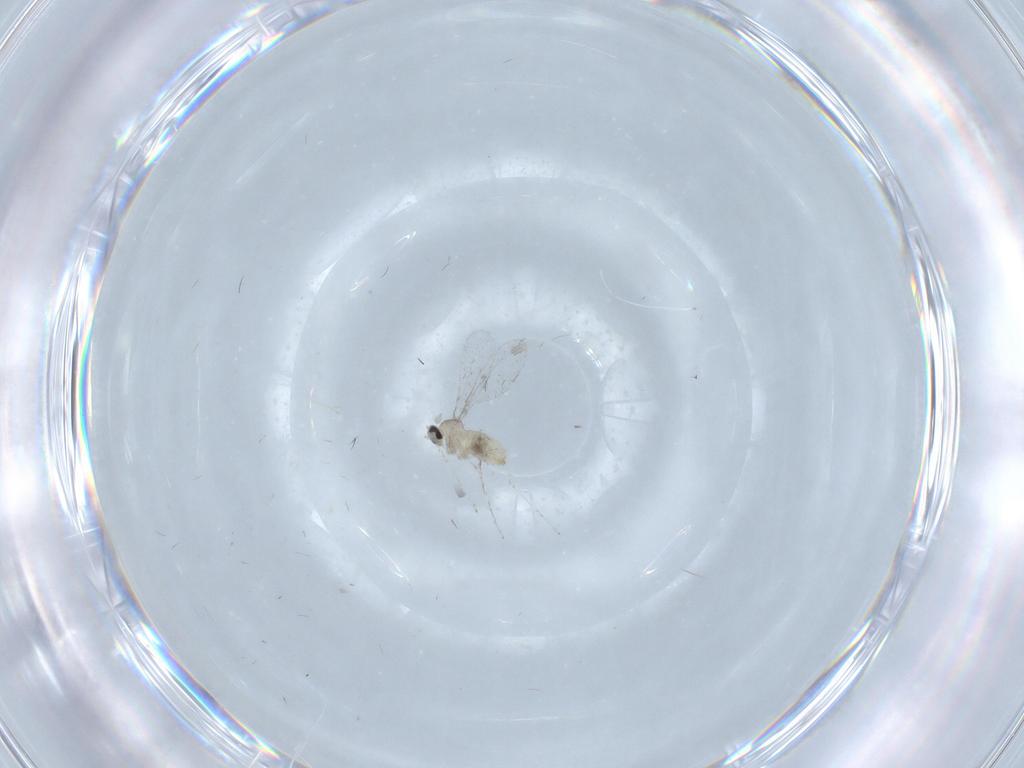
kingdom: Animalia
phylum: Arthropoda
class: Insecta
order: Diptera
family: Cecidomyiidae
